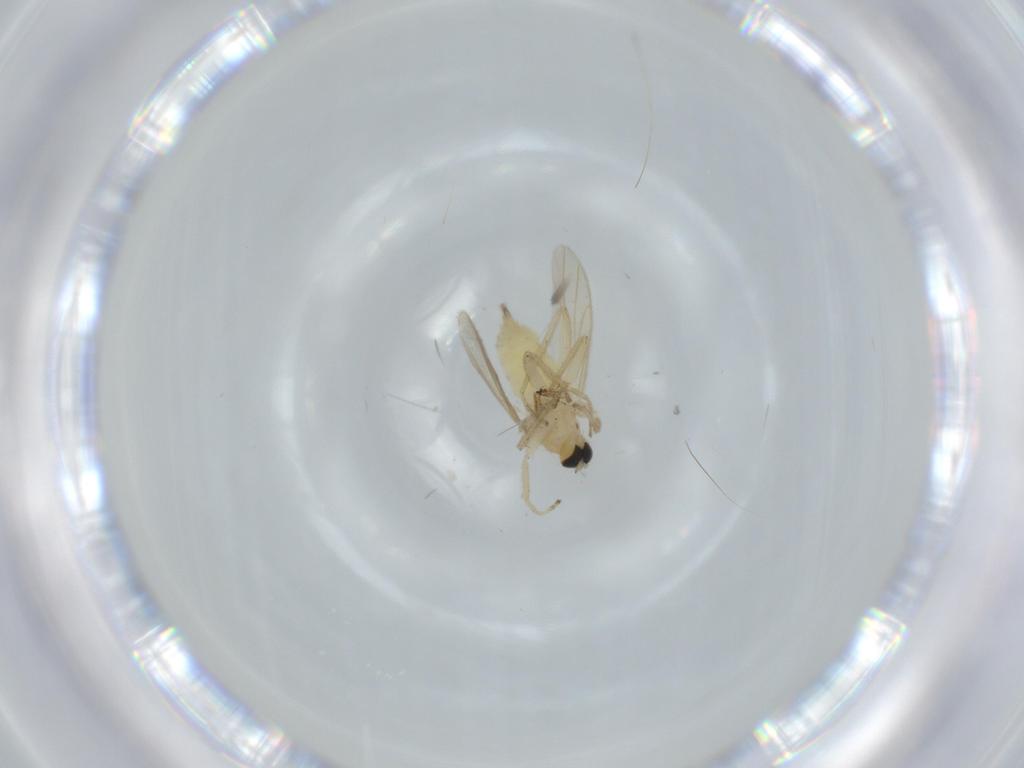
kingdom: Animalia
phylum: Arthropoda
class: Insecta
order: Diptera
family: Hybotidae
